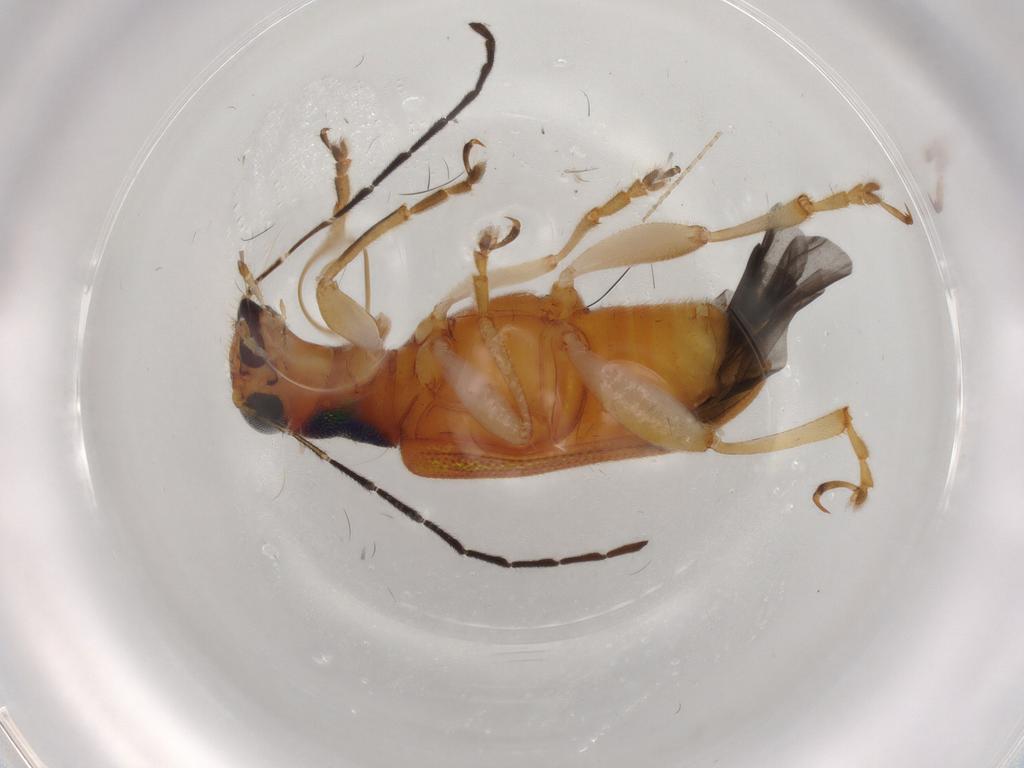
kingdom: Animalia
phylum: Arthropoda
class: Insecta
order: Coleoptera
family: Chrysomelidae
